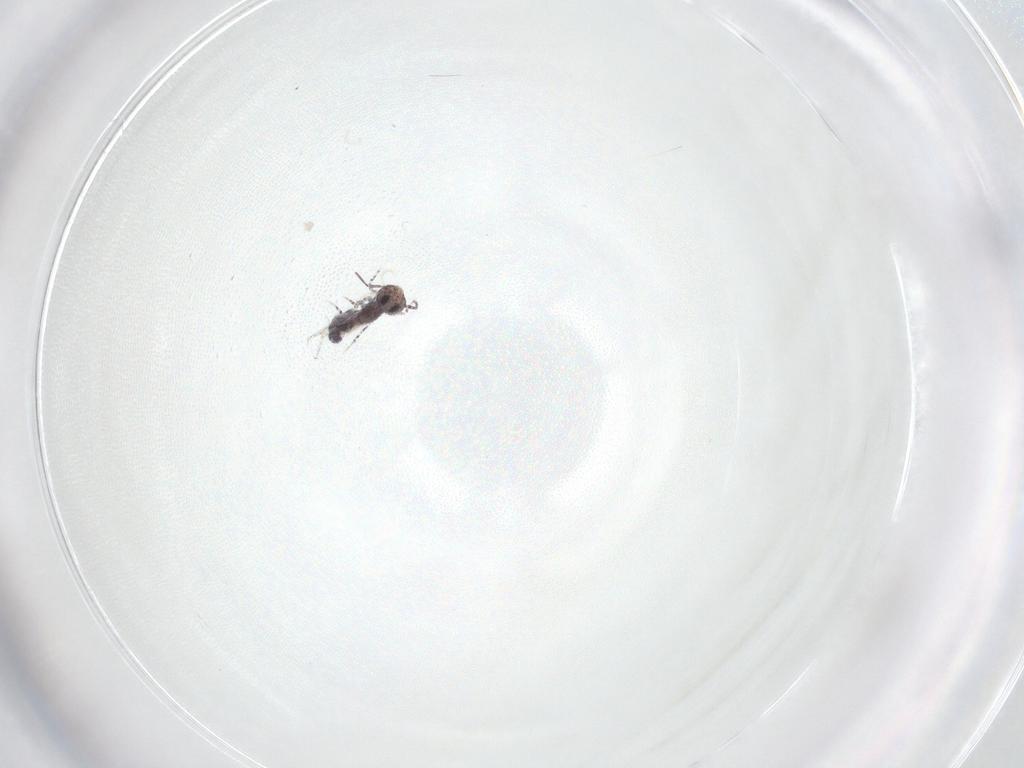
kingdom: Animalia
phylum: Arthropoda
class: Collembola
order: Symphypleona
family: Bourletiellidae
